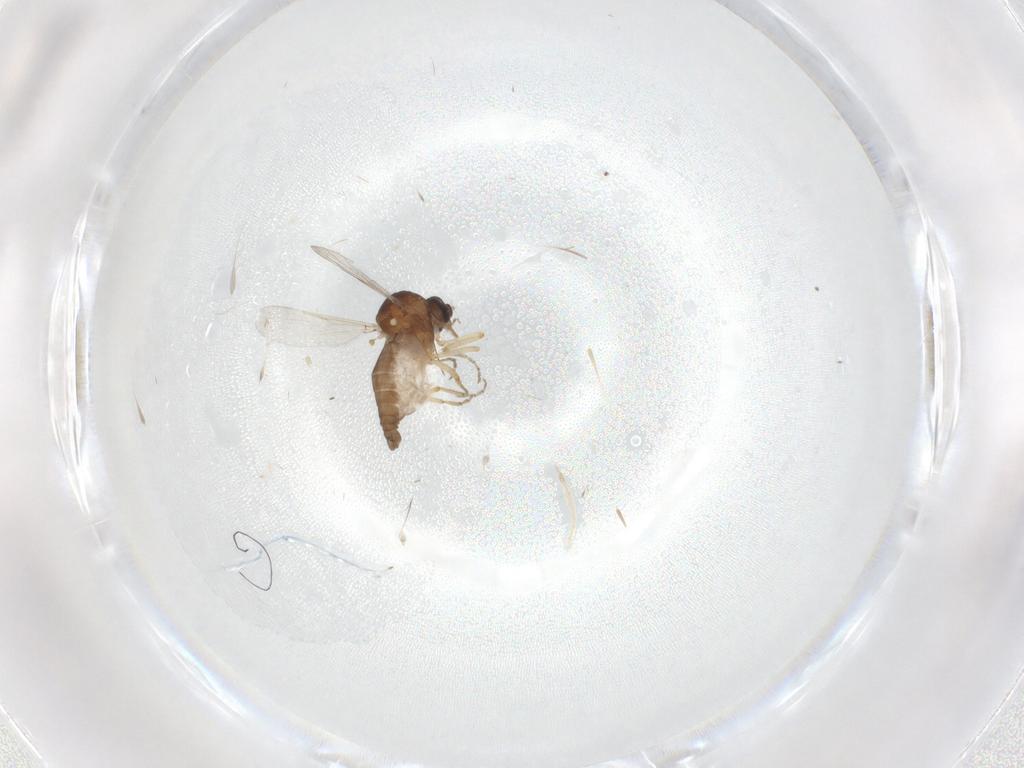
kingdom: Animalia
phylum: Arthropoda
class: Insecta
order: Diptera
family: Ceratopogonidae
